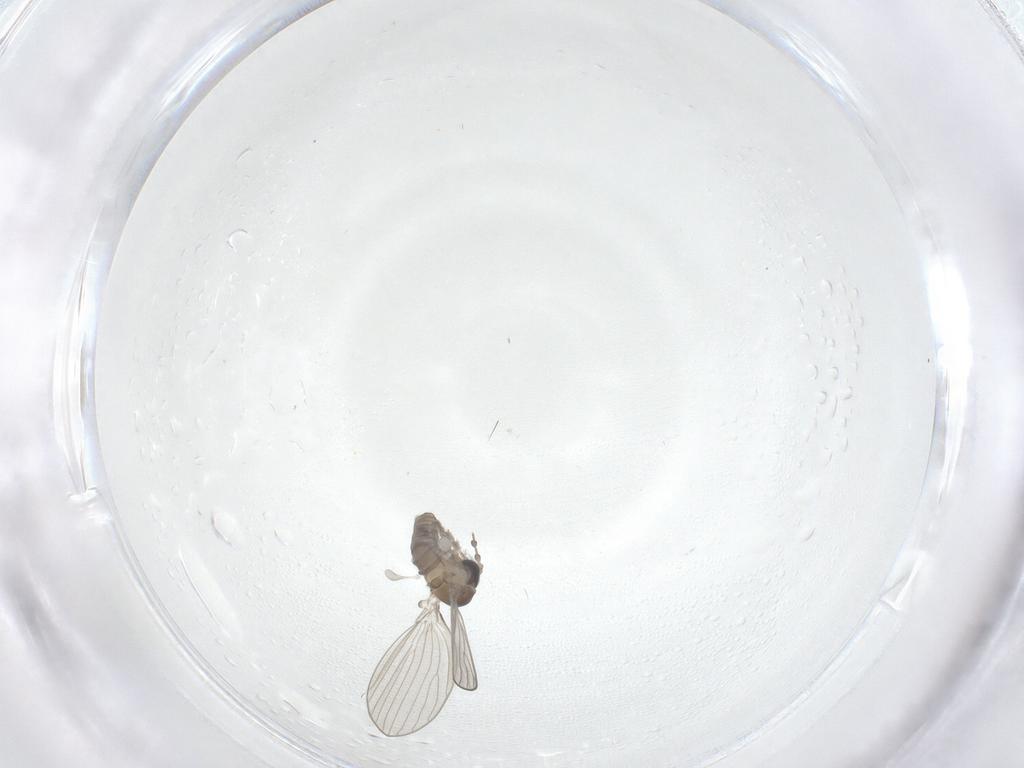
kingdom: Animalia
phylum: Arthropoda
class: Insecta
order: Diptera
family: Psychodidae
